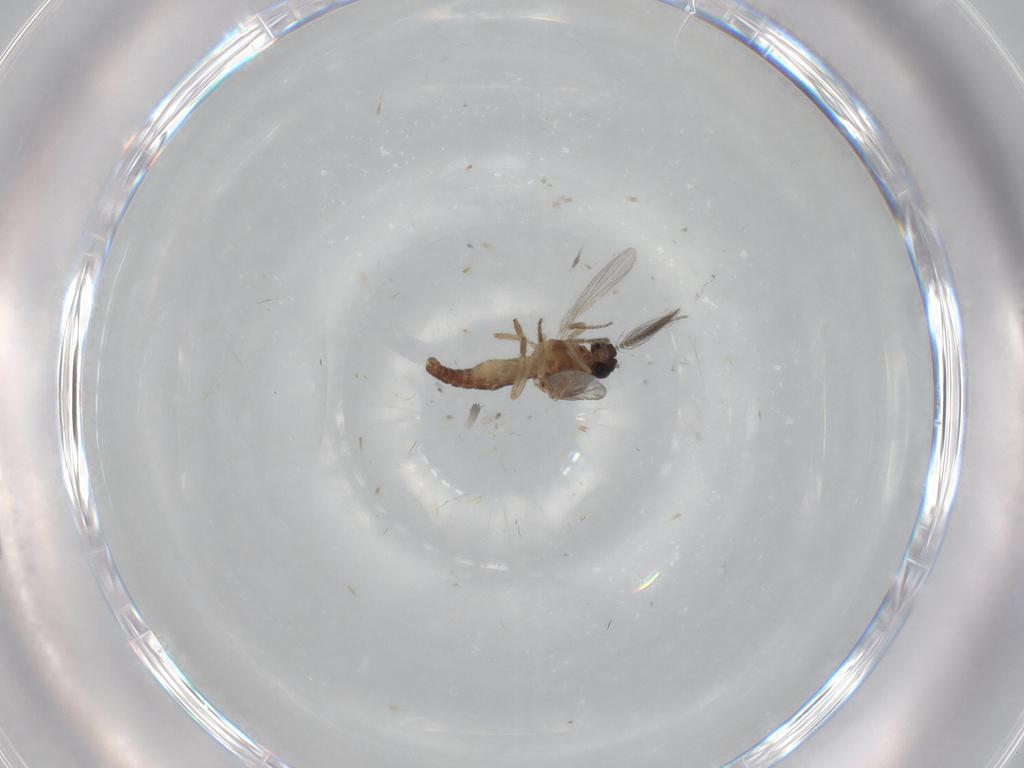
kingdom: Animalia
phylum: Arthropoda
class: Insecta
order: Diptera
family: Ceratopogonidae
